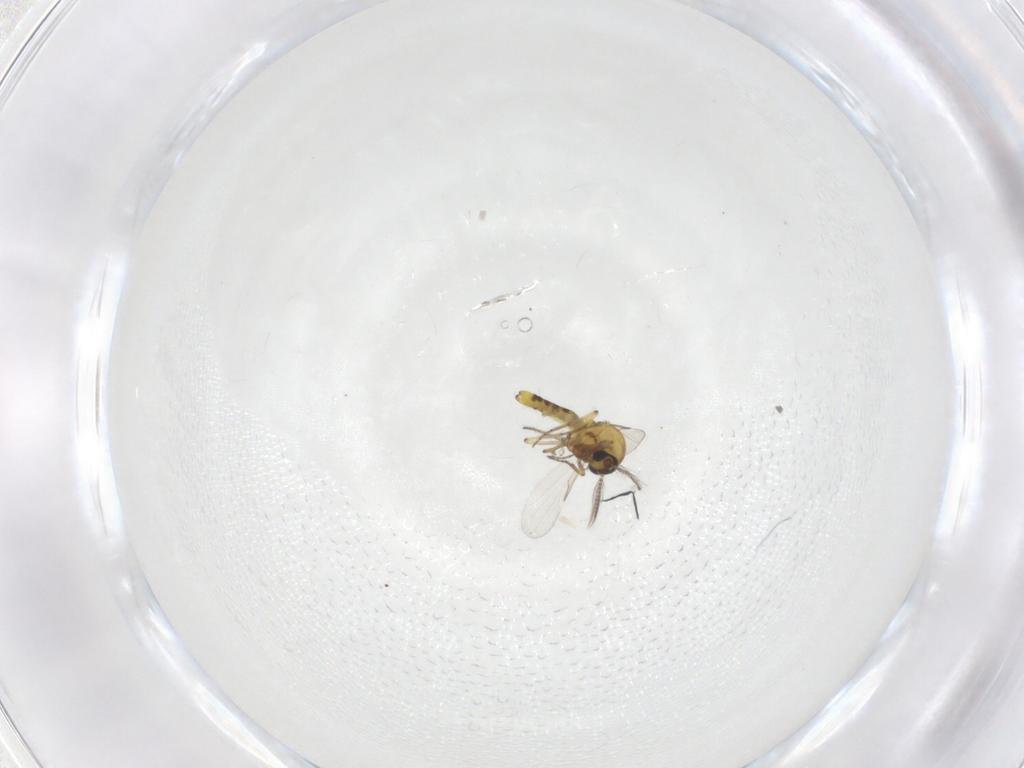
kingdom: Animalia
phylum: Arthropoda
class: Insecta
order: Diptera
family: Ceratopogonidae
